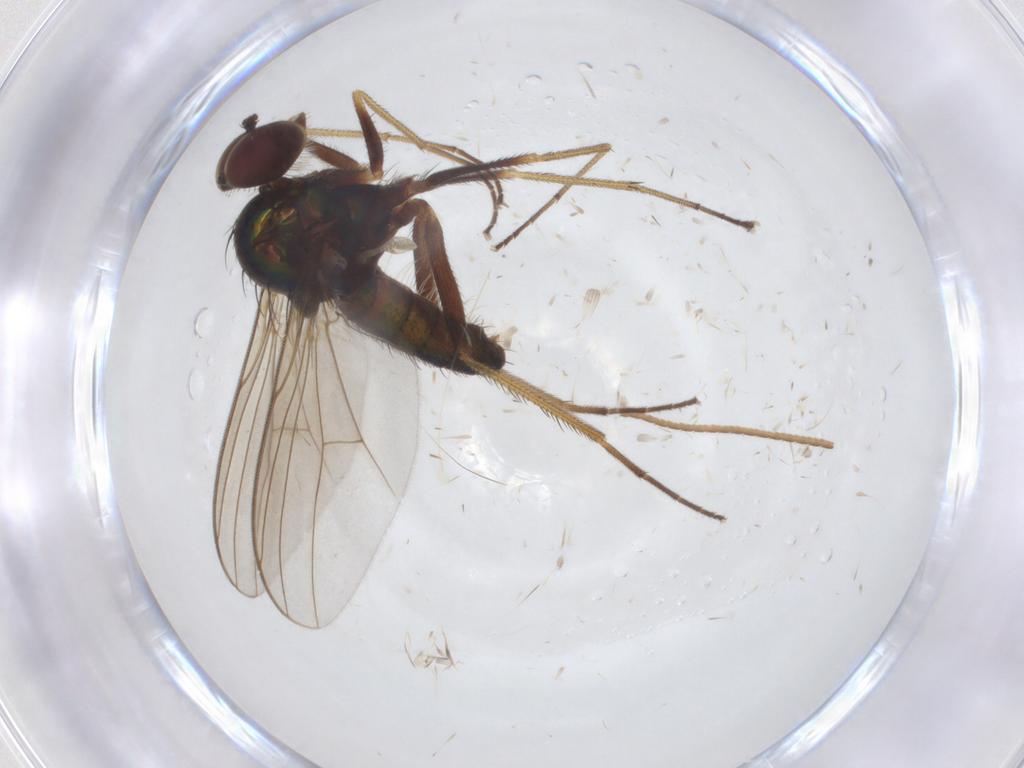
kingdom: Animalia
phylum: Arthropoda
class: Insecta
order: Diptera
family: Dolichopodidae
